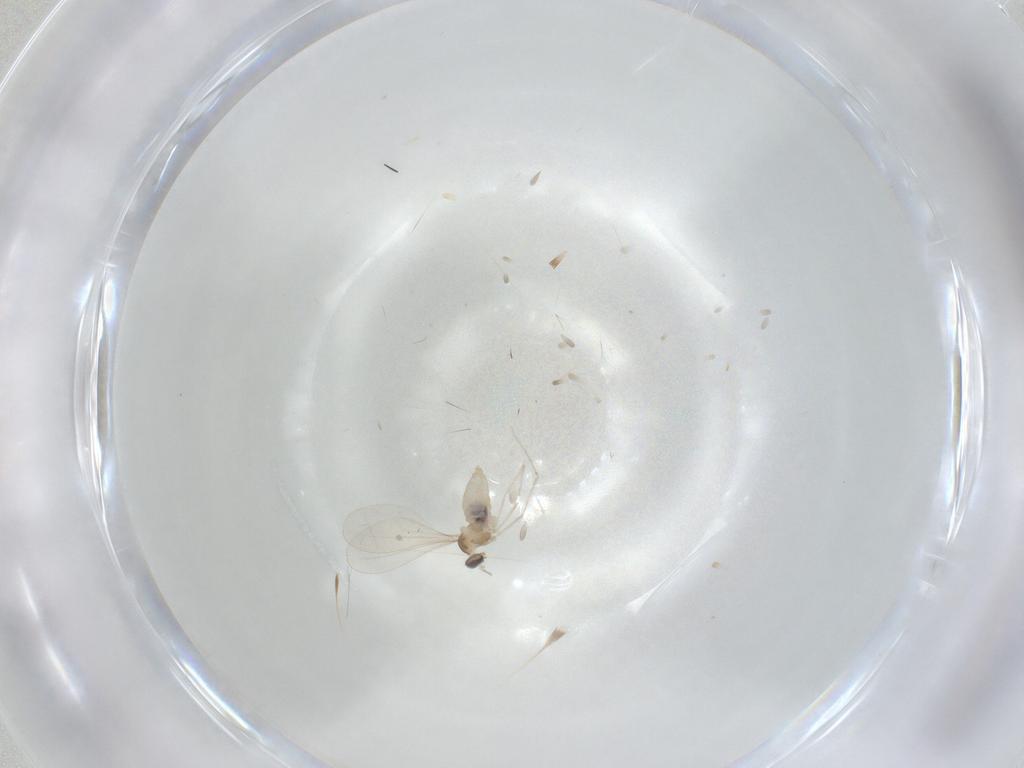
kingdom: Animalia
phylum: Arthropoda
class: Insecta
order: Diptera
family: Cecidomyiidae
